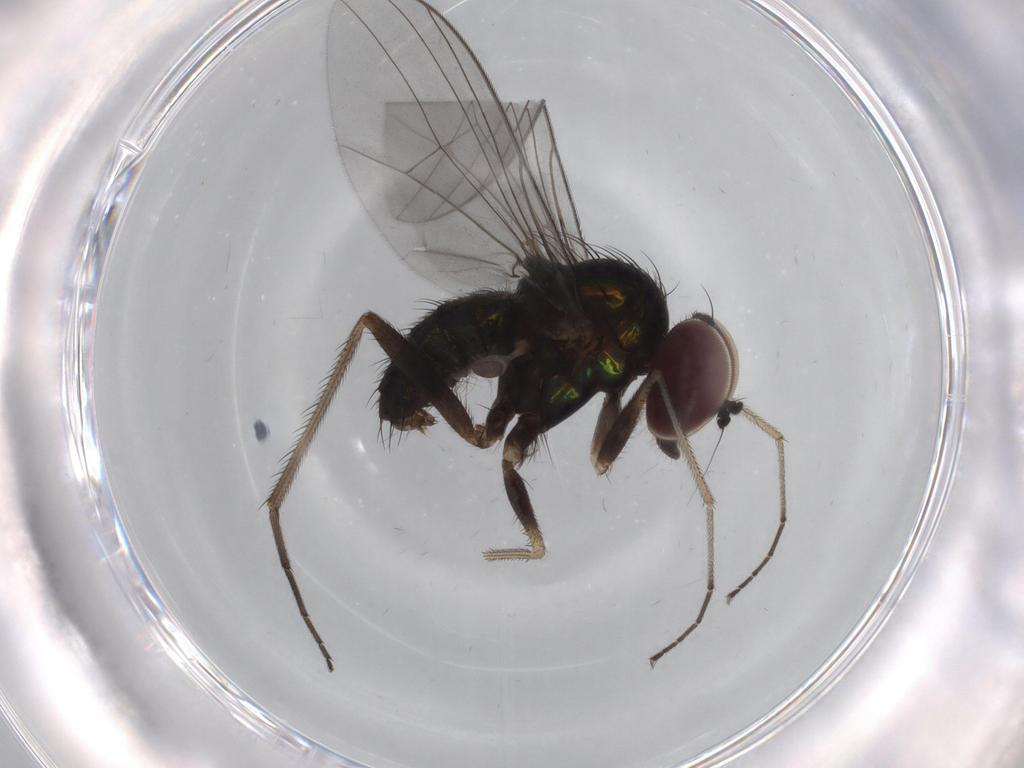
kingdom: Animalia
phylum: Arthropoda
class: Insecta
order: Diptera
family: Dolichopodidae
